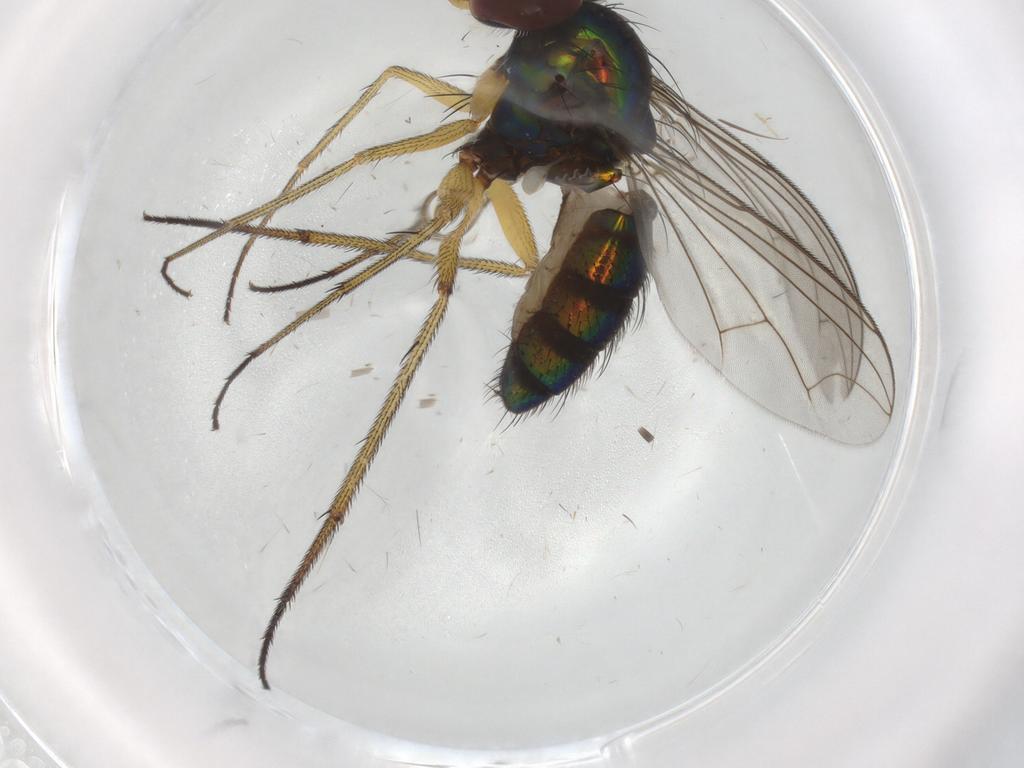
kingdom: Animalia
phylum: Arthropoda
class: Insecta
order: Diptera
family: Dolichopodidae
